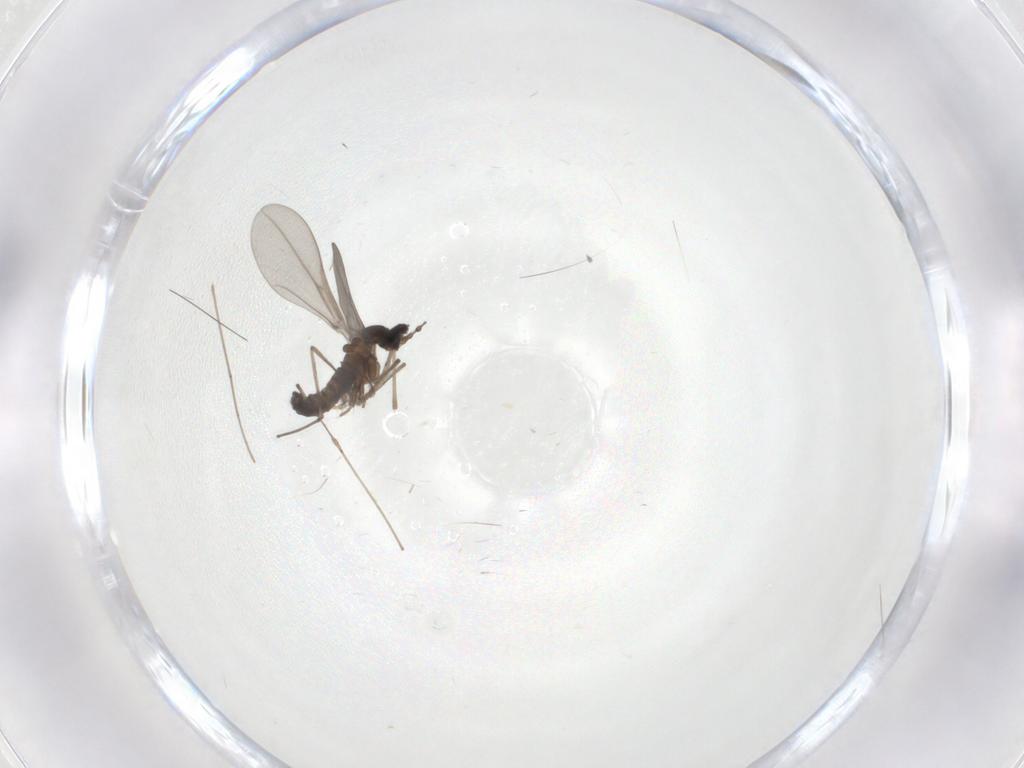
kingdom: Animalia
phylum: Arthropoda
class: Insecta
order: Diptera
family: Cecidomyiidae
